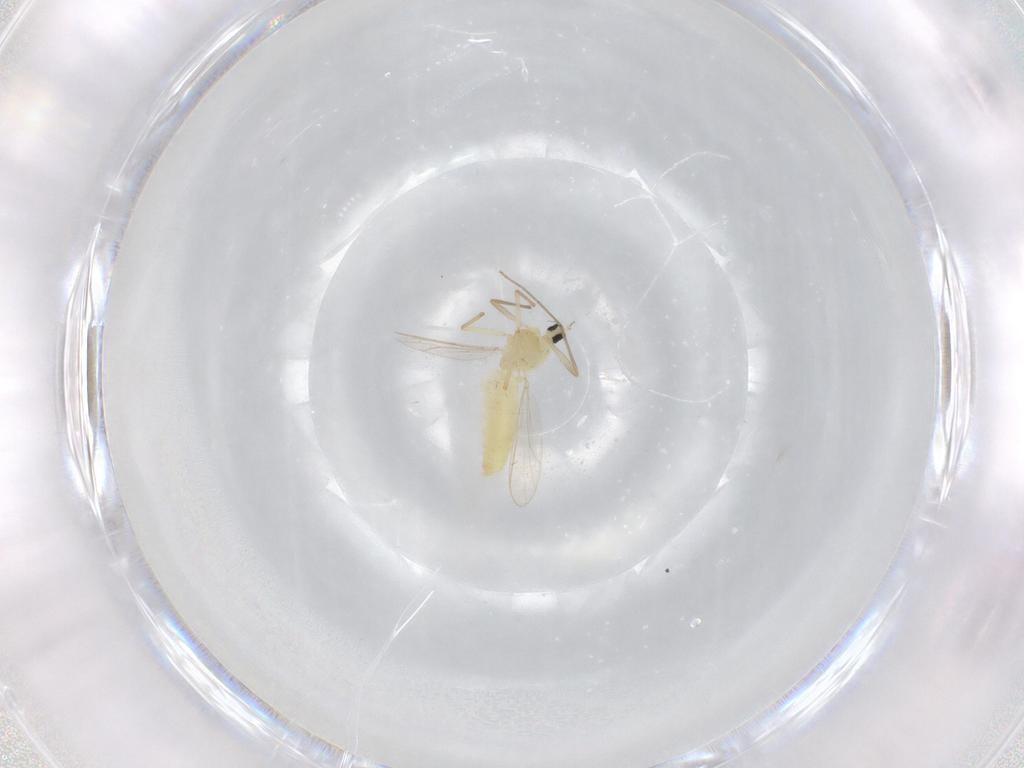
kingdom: Animalia
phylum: Arthropoda
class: Insecta
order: Diptera
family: Chironomidae
